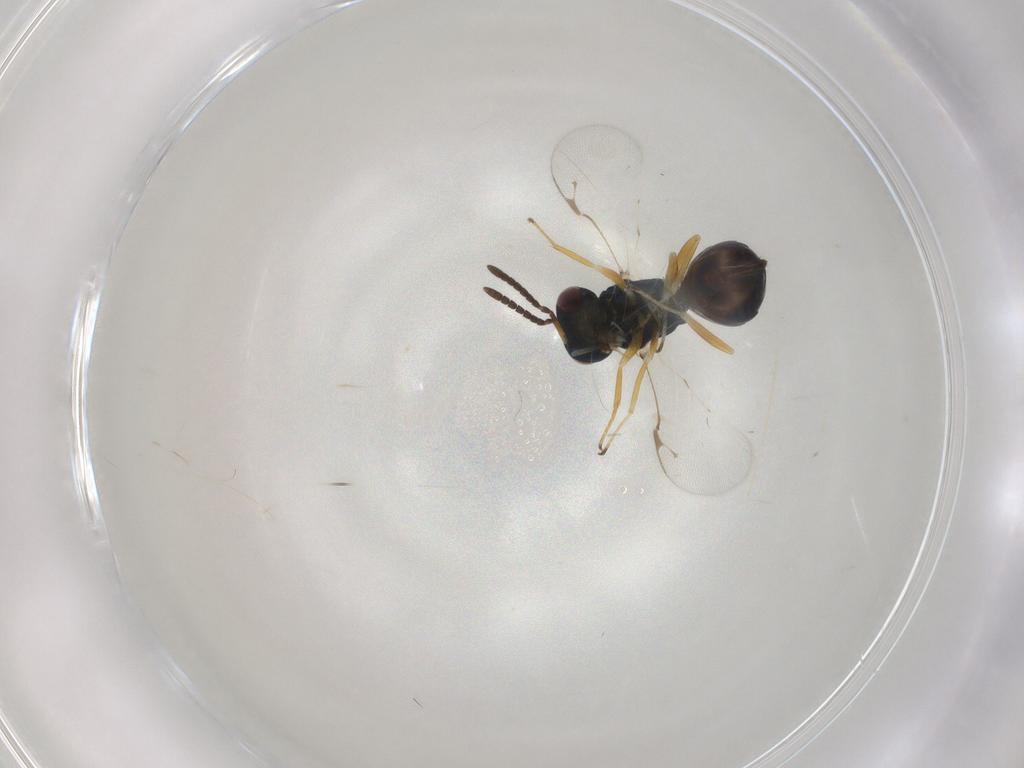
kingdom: Animalia
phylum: Arthropoda
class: Insecta
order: Hymenoptera
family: Pteromalidae
